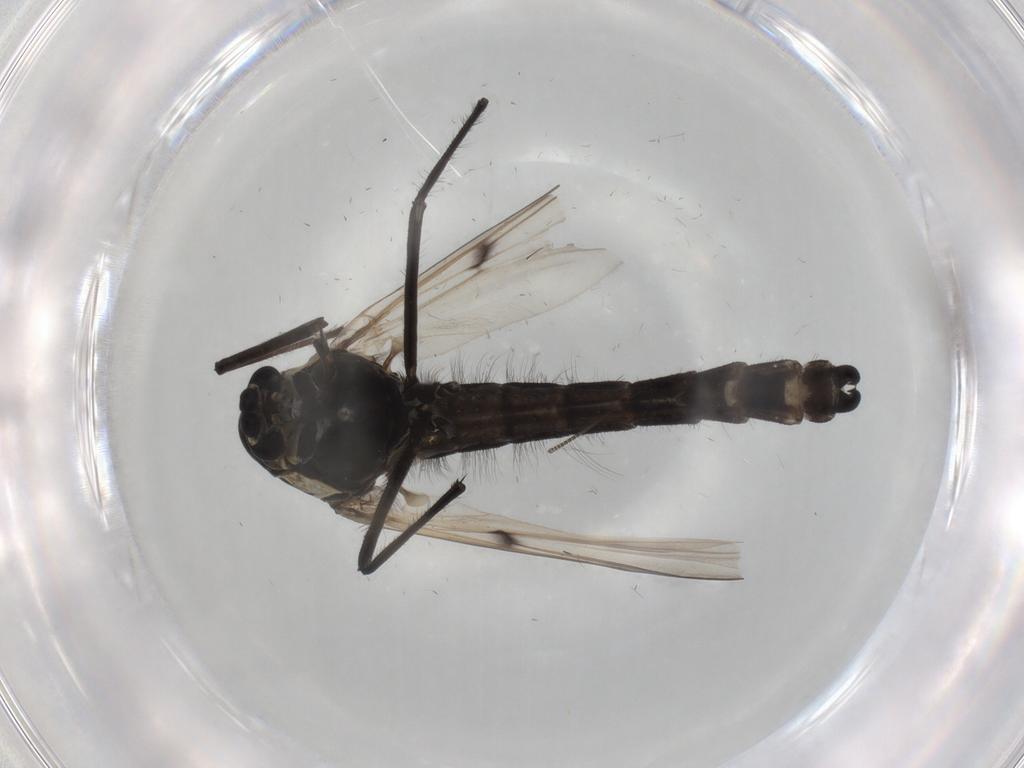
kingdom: Animalia
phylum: Arthropoda
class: Insecta
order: Diptera
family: Chironomidae
